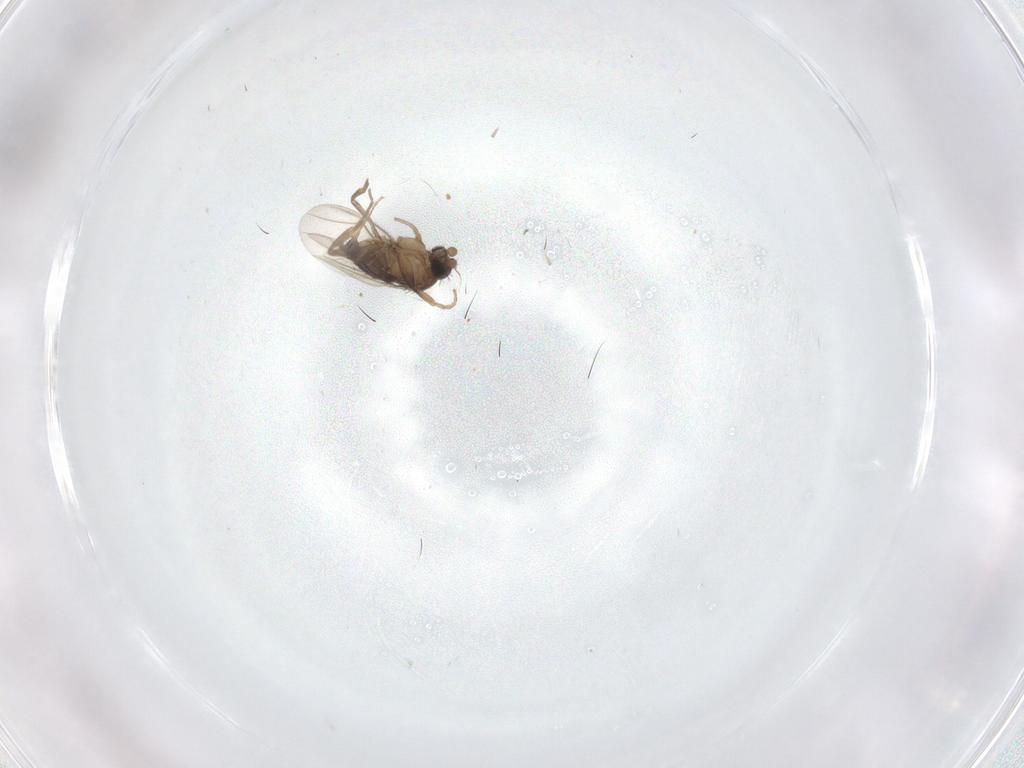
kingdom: Animalia
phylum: Arthropoda
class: Insecta
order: Diptera
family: Phoridae
